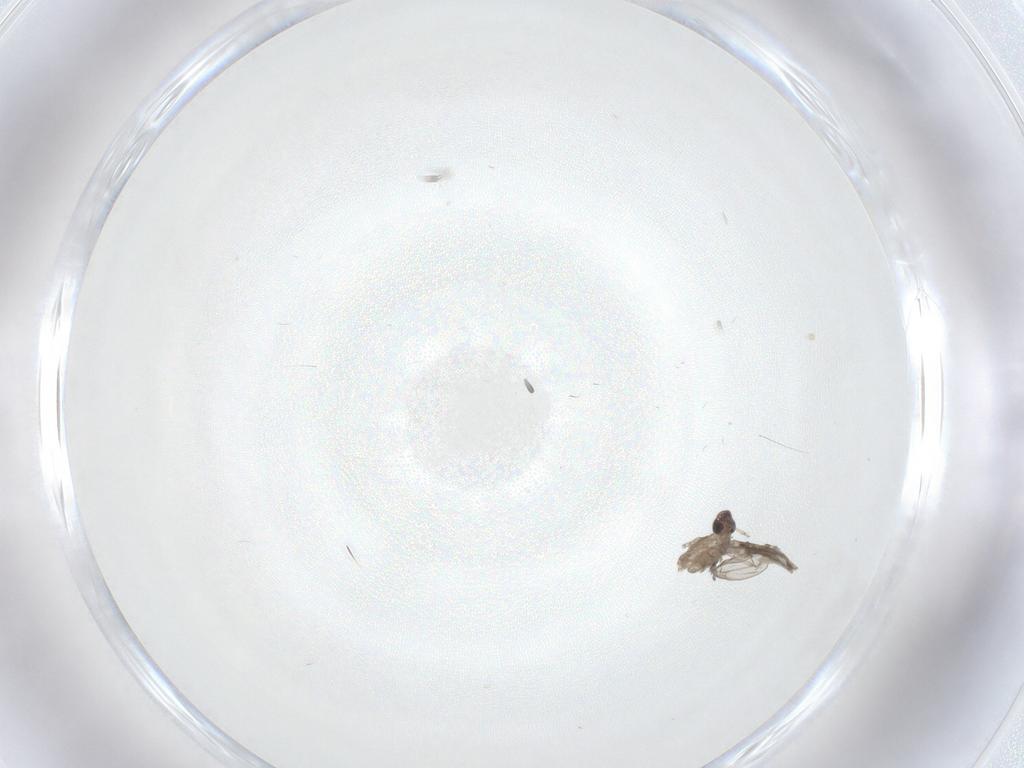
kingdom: Animalia
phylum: Arthropoda
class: Insecta
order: Diptera
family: Cecidomyiidae
